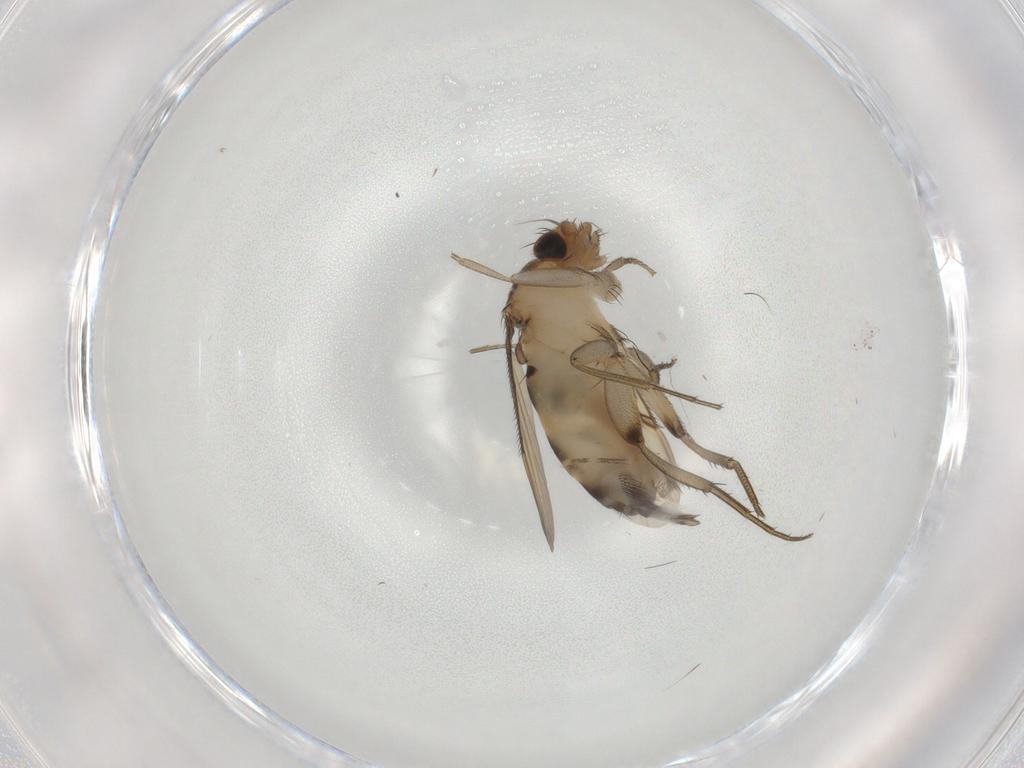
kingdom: Animalia
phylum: Arthropoda
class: Insecta
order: Diptera
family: Phoridae
